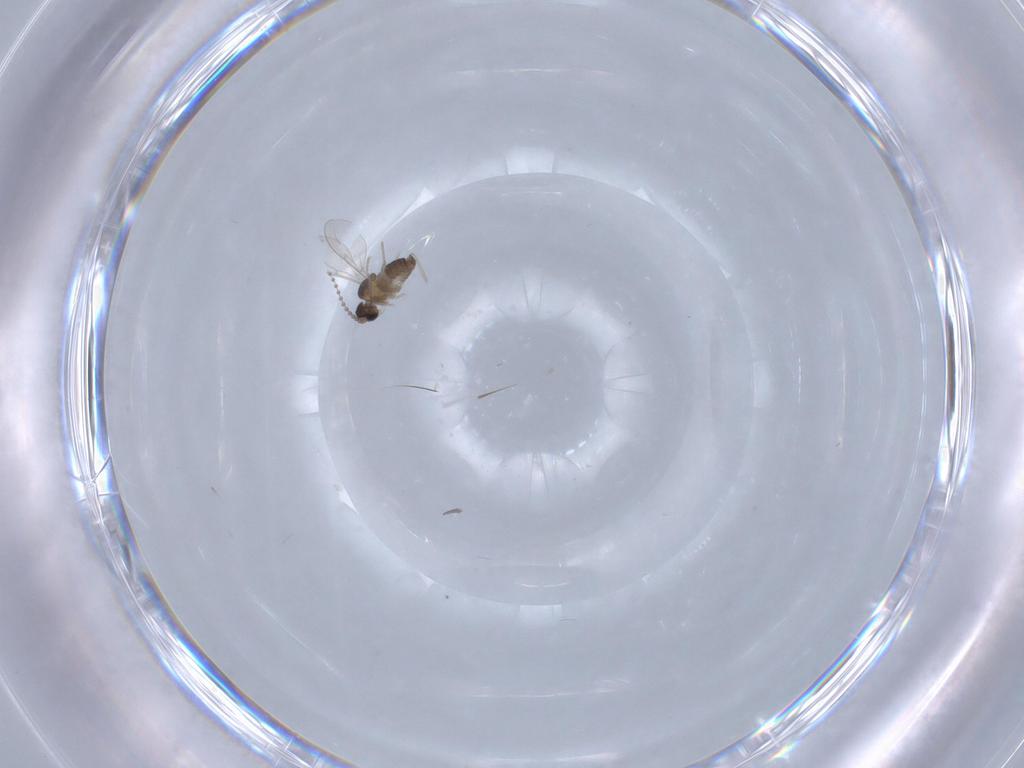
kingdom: Animalia
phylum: Arthropoda
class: Insecta
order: Diptera
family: Cecidomyiidae
